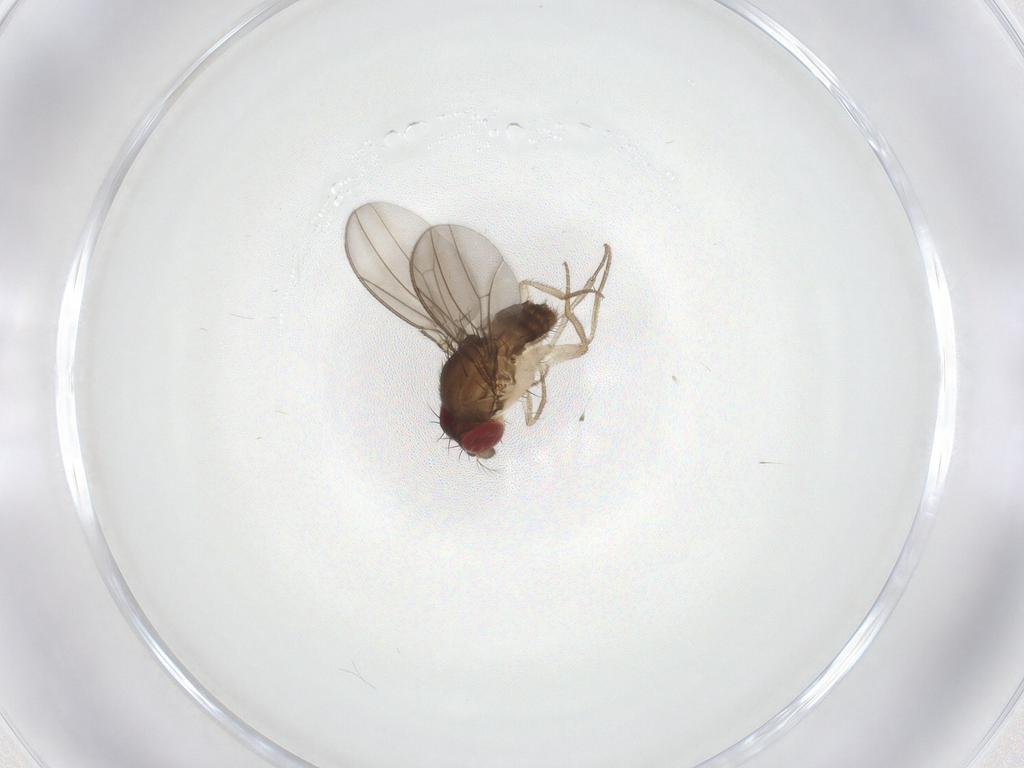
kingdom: Animalia
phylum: Arthropoda
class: Insecta
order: Diptera
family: Drosophilidae
